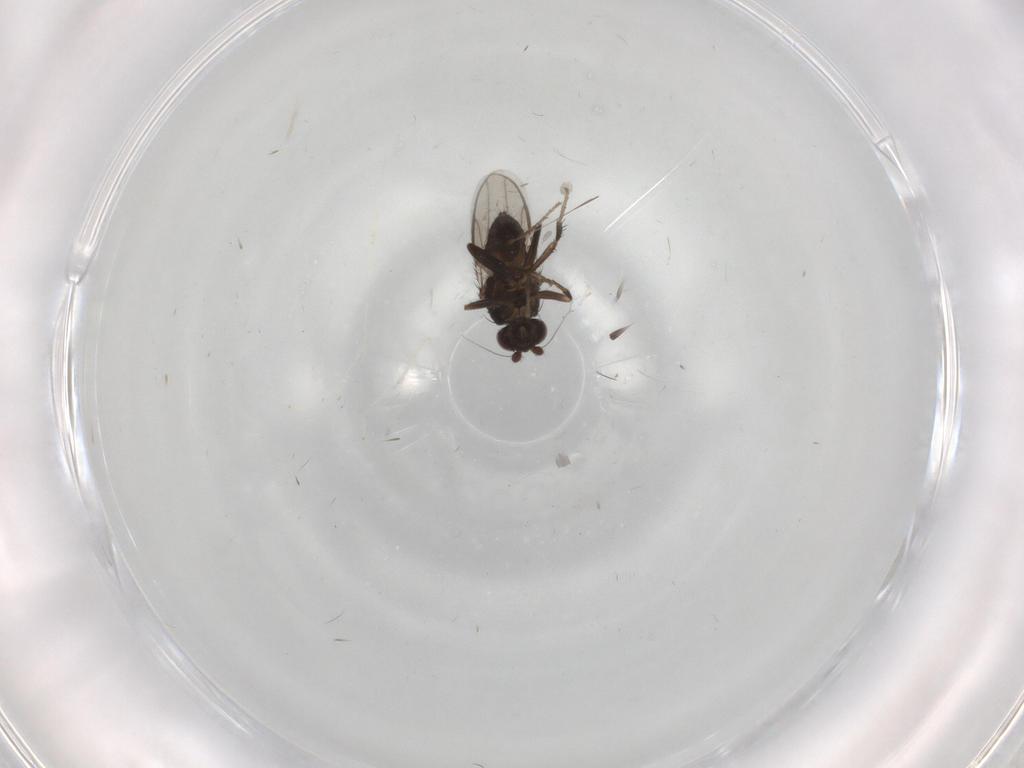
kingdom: Animalia
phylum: Arthropoda
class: Insecta
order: Diptera
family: Sphaeroceridae
